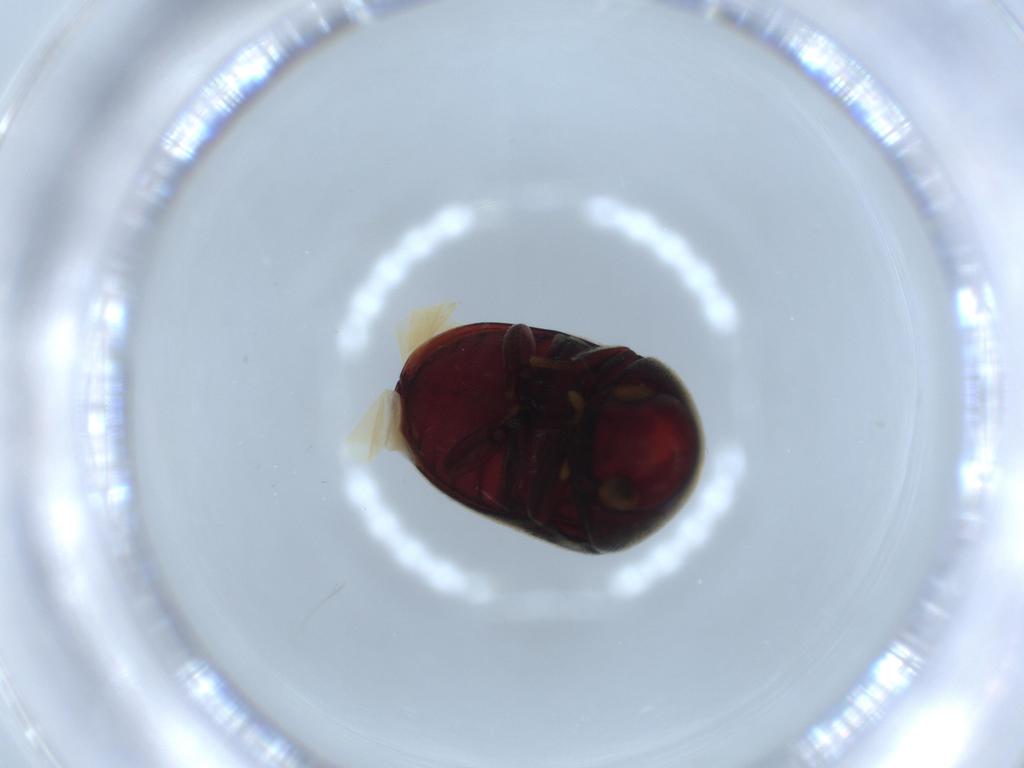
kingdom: Animalia
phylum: Arthropoda
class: Insecta
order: Coleoptera
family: Ptinidae
